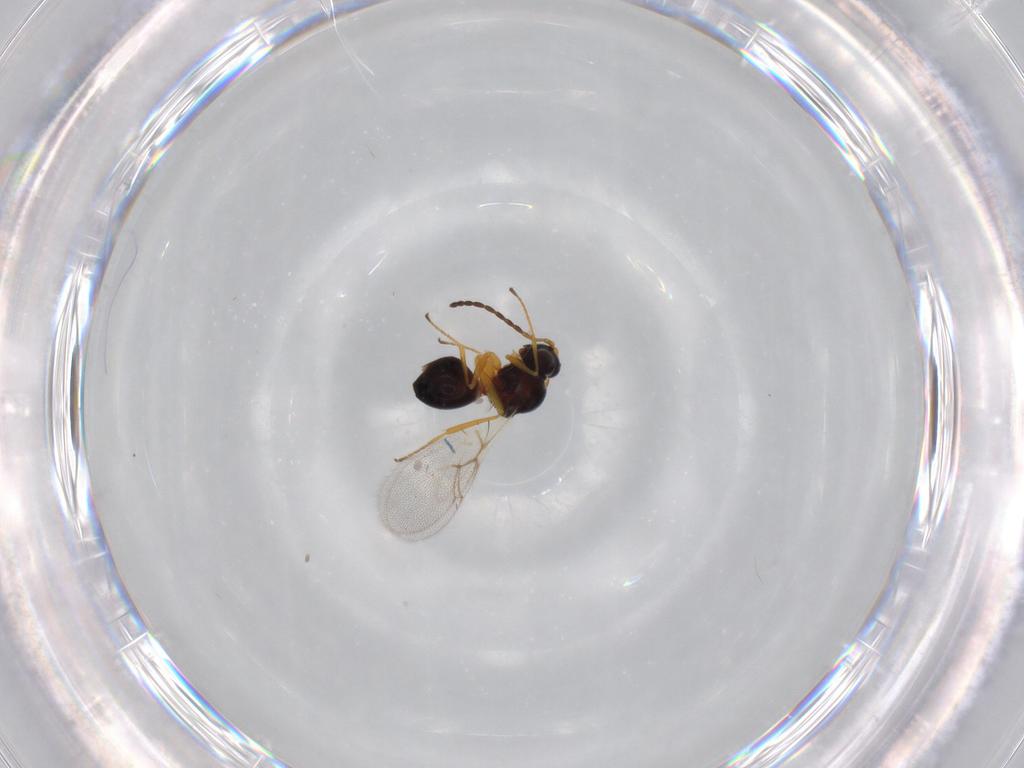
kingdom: Animalia
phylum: Arthropoda
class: Insecta
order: Hymenoptera
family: Figitidae
